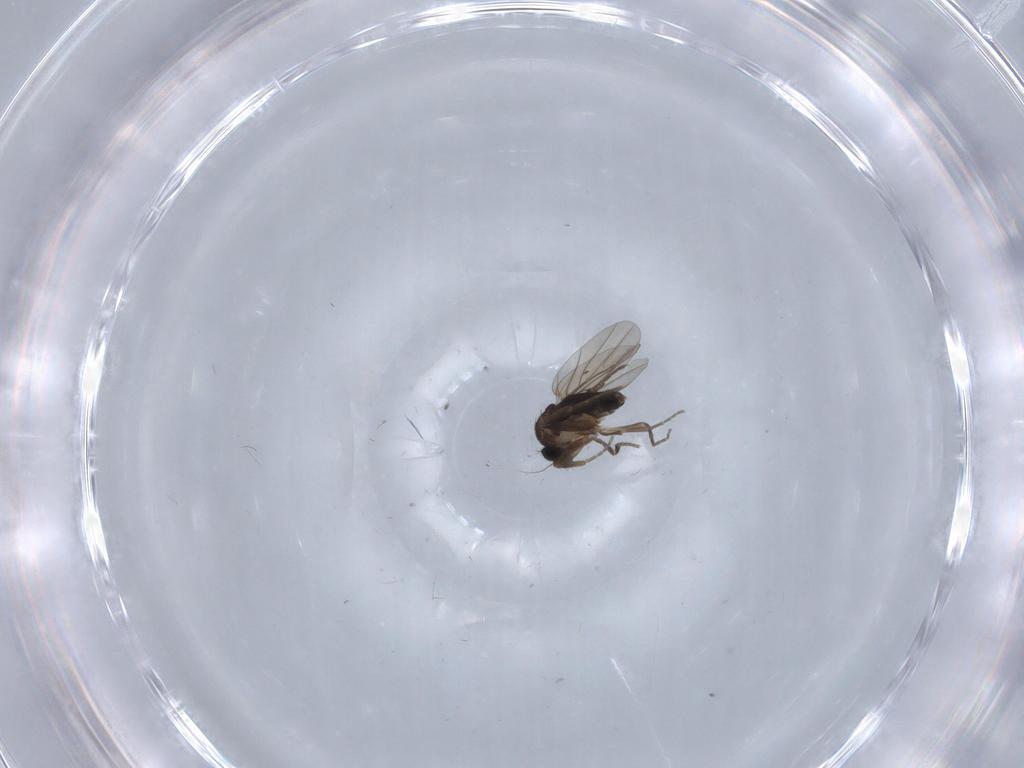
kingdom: Animalia
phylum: Arthropoda
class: Insecta
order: Diptera
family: Phoridae
